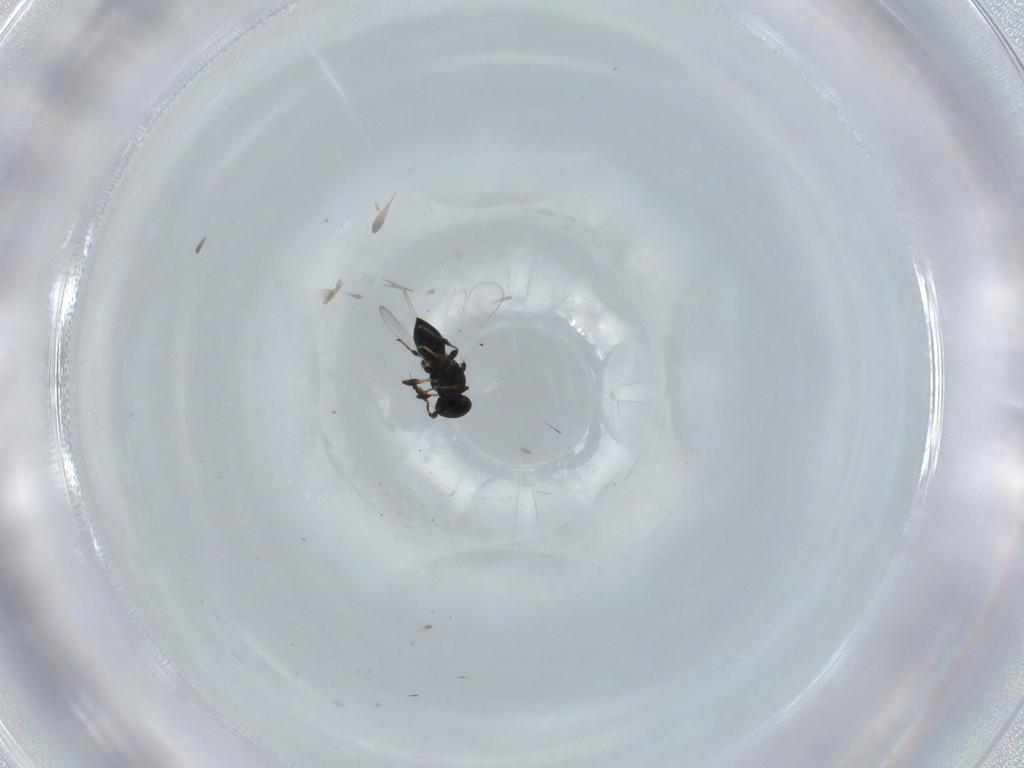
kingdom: Animalia
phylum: Arthropoda
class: Insecta
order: Hymenoptera
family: Platygastridae
